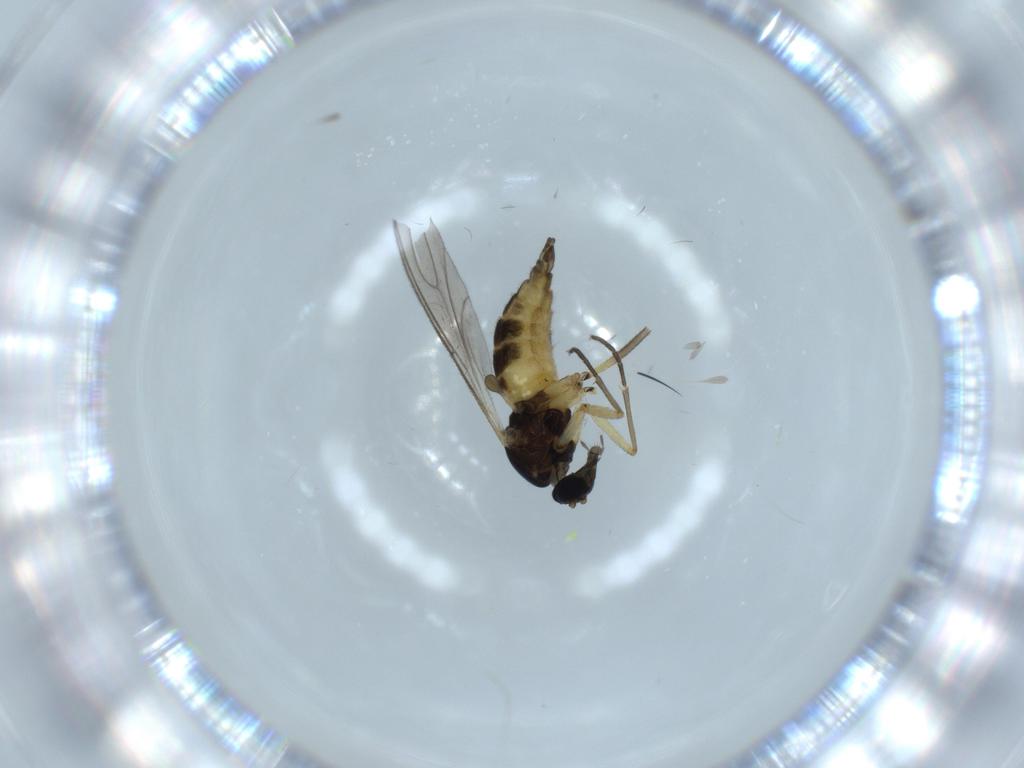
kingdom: Animalia
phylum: Arthropoda
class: Insecta
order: Diptera
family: Sciaridae
